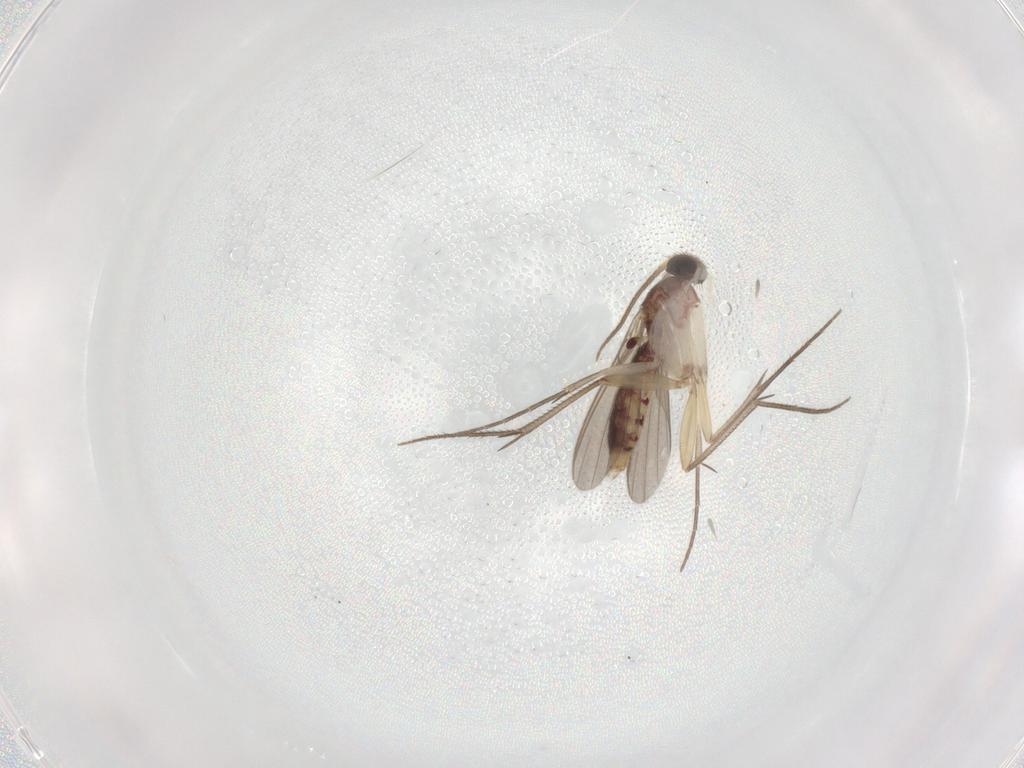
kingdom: Animalia
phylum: Arthropoda
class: Insecta
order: Diptera
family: Mycetophilidae
